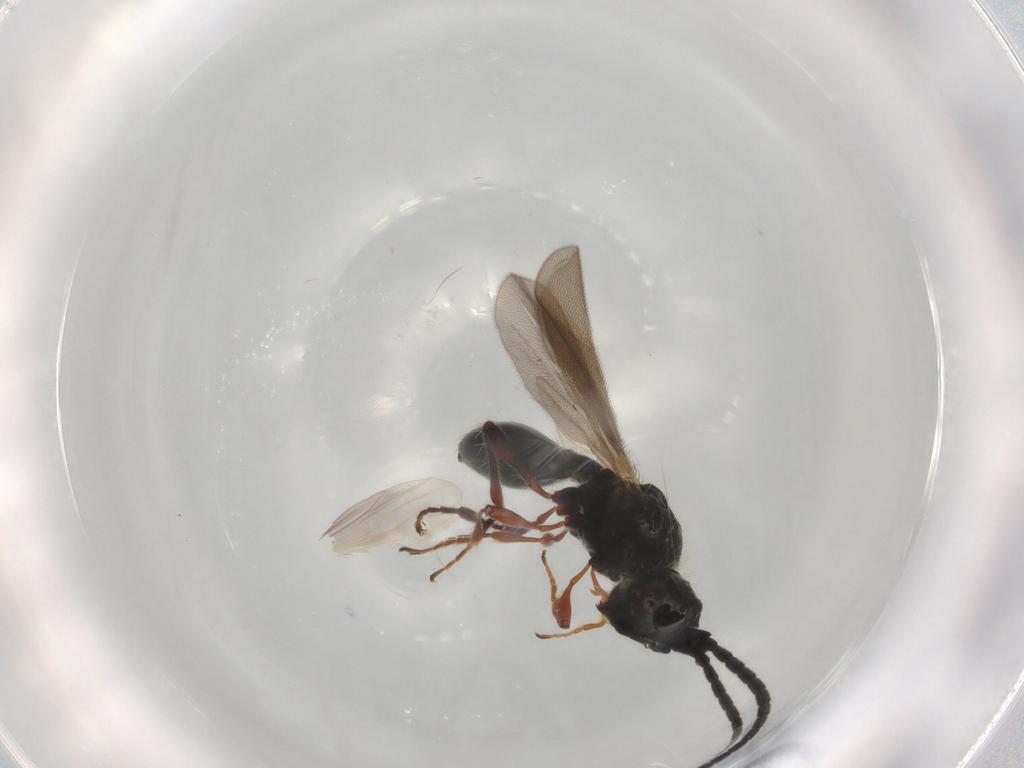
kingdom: Animalia
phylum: Arthropoda
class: Insecta
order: Hymenoptera
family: Diapriidae
